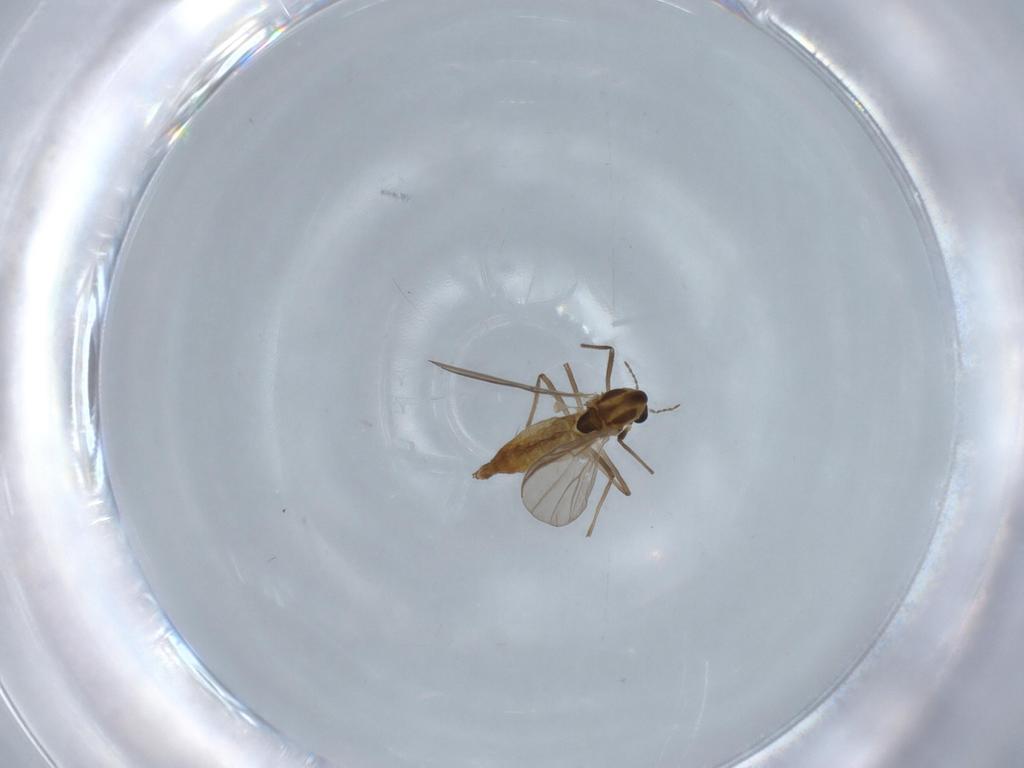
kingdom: Animalia
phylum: Arthropoda
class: Insecta
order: Diptera
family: Chironomidae
